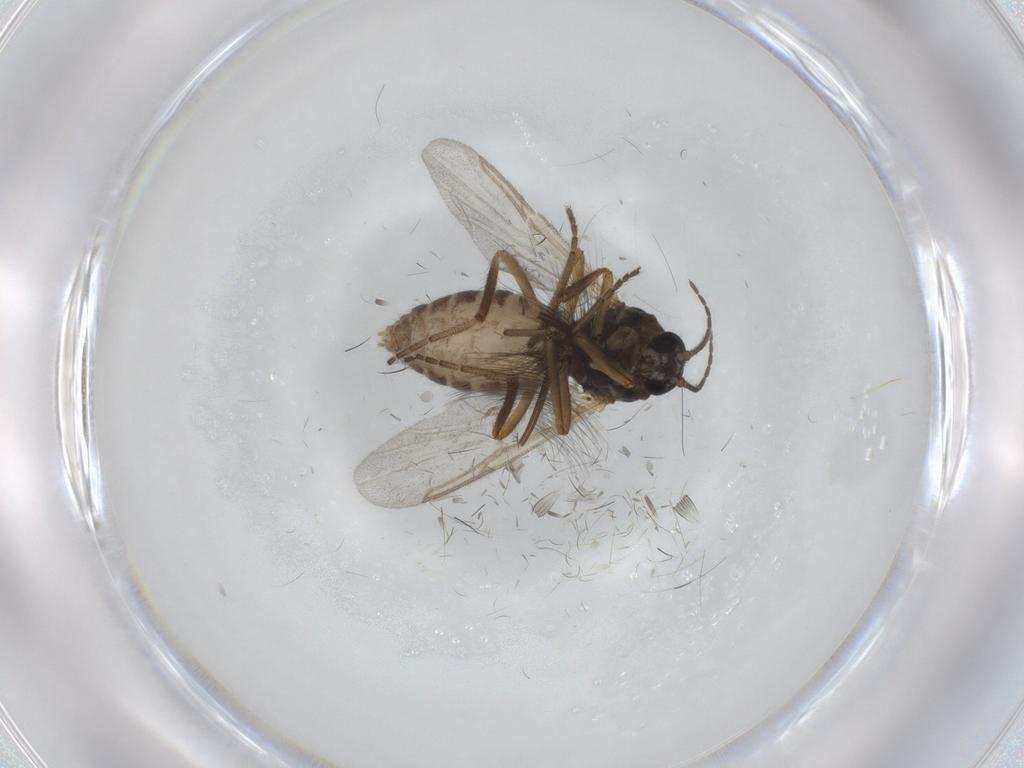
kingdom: Animalia
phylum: Arthropoda
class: Insecta
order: Diptera
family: Ceratopogonidae
